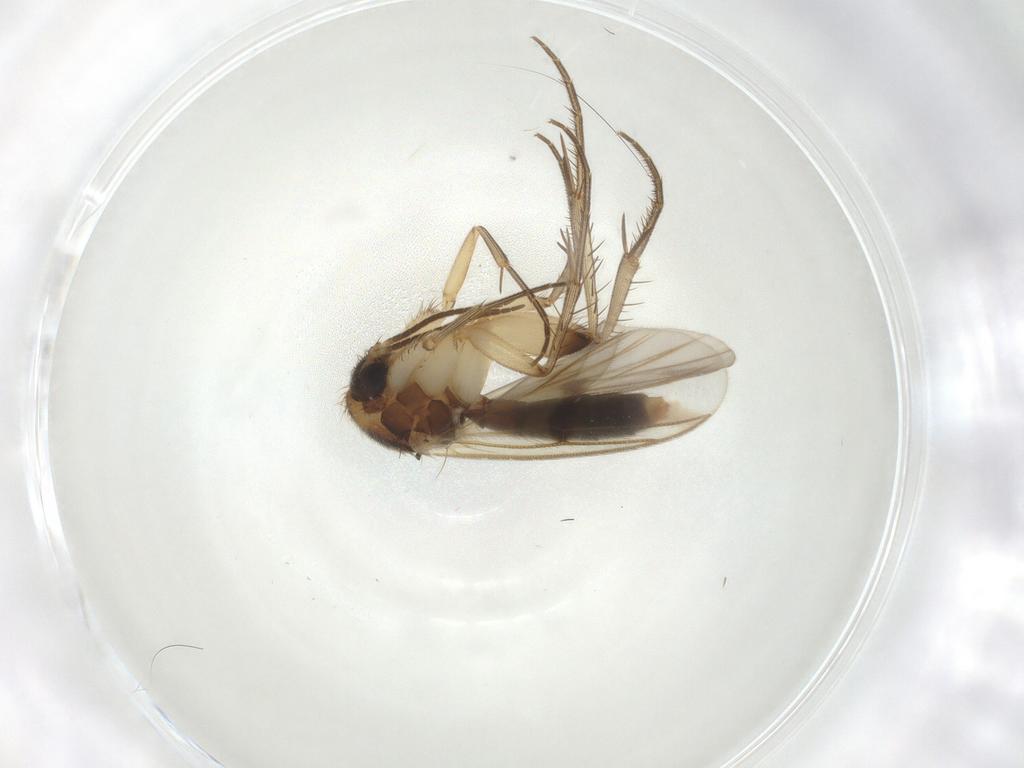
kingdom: Animalia
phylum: Arthropoda
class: Insecta
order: Diptera
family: Mycetophilidae
